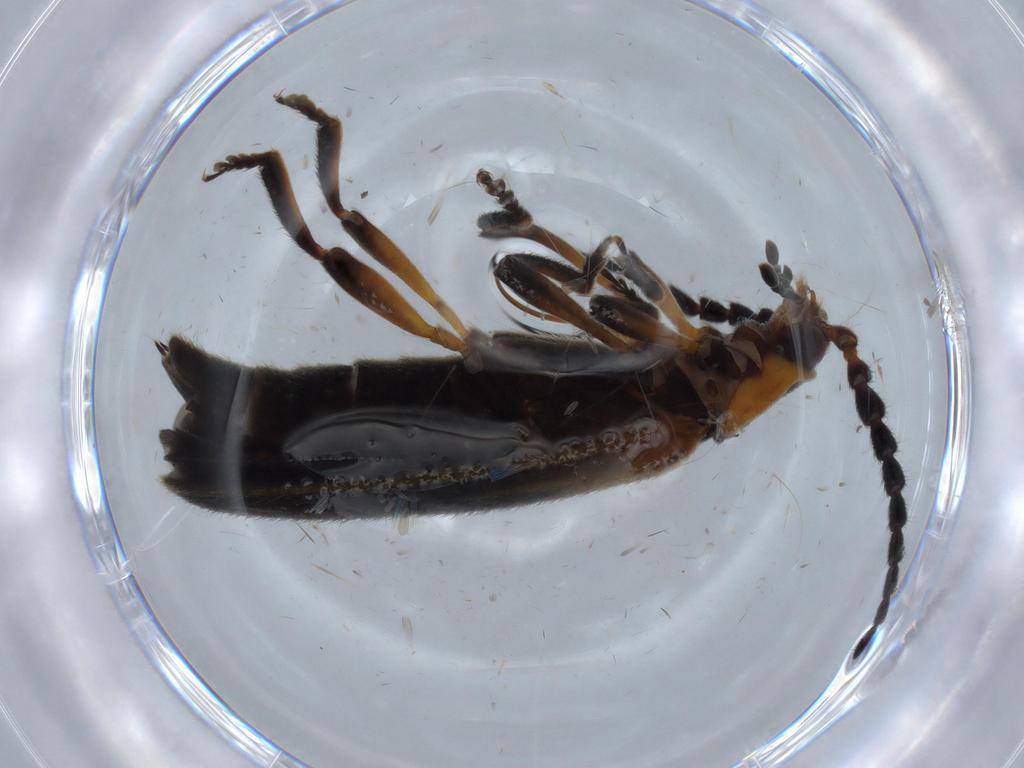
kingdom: Animalia
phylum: Arthropoda
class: Insecta
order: Coleoptera
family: Lycidae
